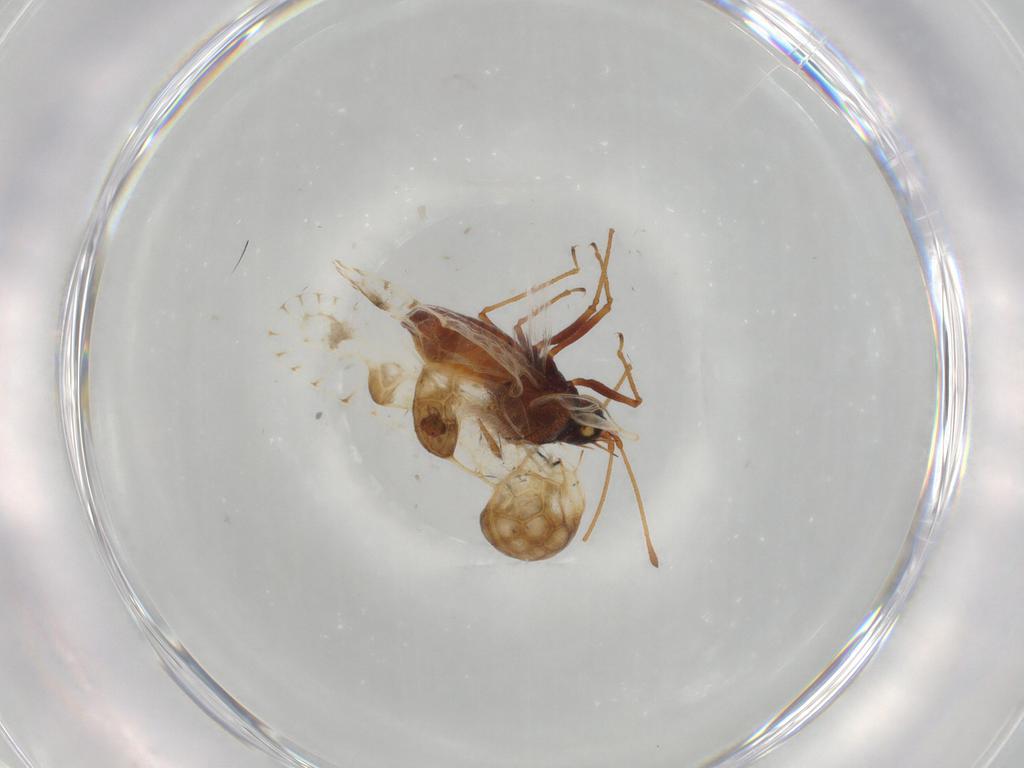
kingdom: Animalia
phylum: Arthropoda
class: Insecta
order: Hemiptera
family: Tingidae
